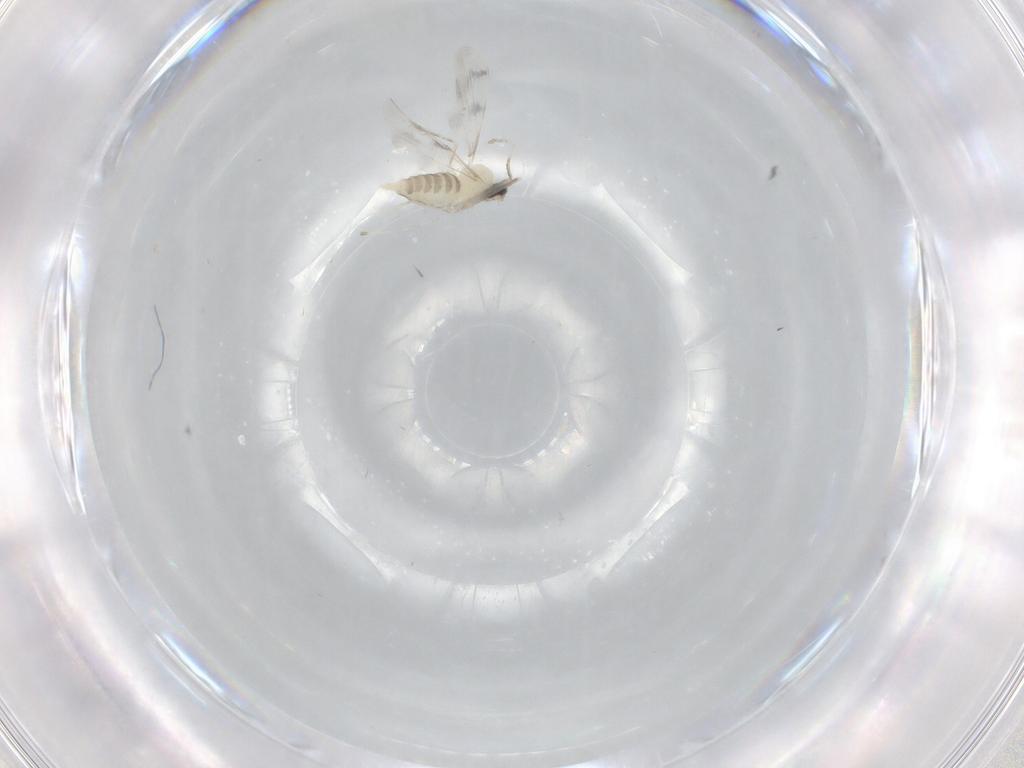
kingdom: Animalia
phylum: Arthropoda
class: Insecta
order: Diptera
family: Cecidomyiidae
